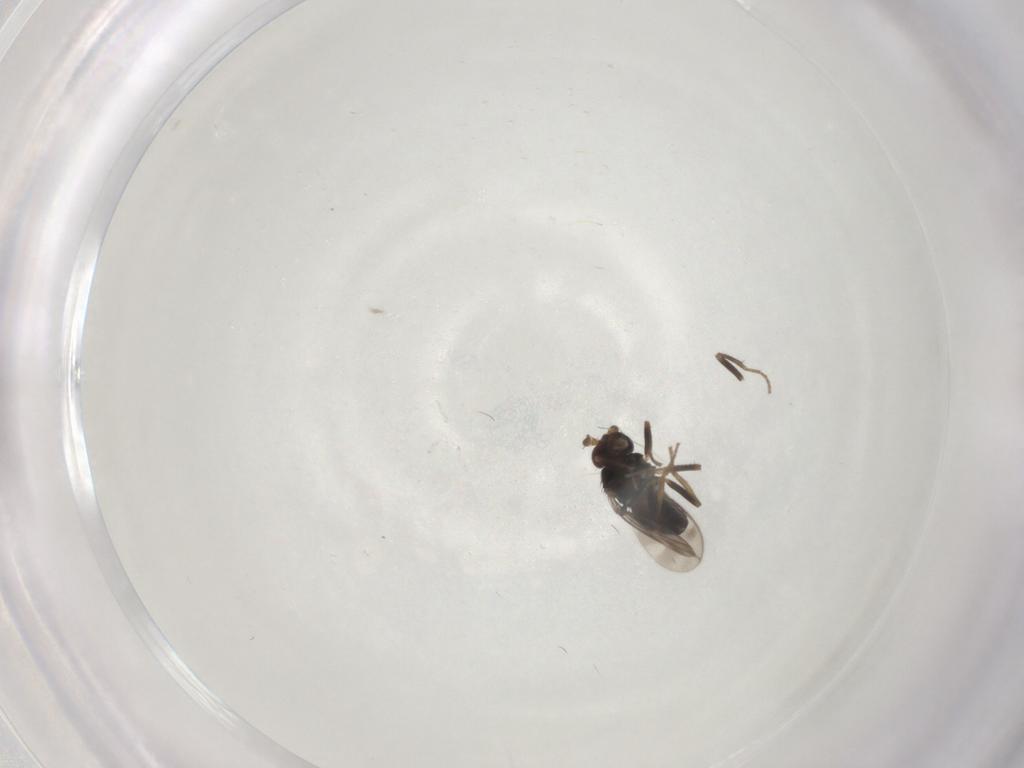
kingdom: Animalia
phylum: Arthropoda
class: Insecta
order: Diptera
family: Sphaeroceridae
